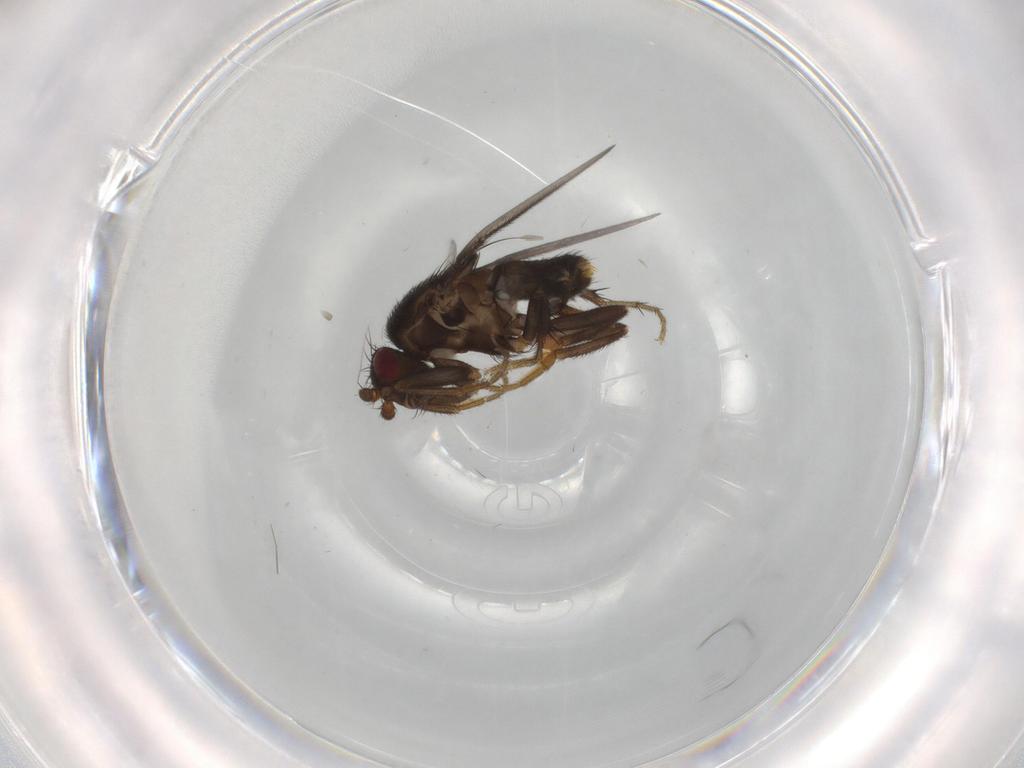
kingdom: Animalia
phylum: Arthropoda
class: Insecta
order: Diptera
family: Sphaeroceridae
